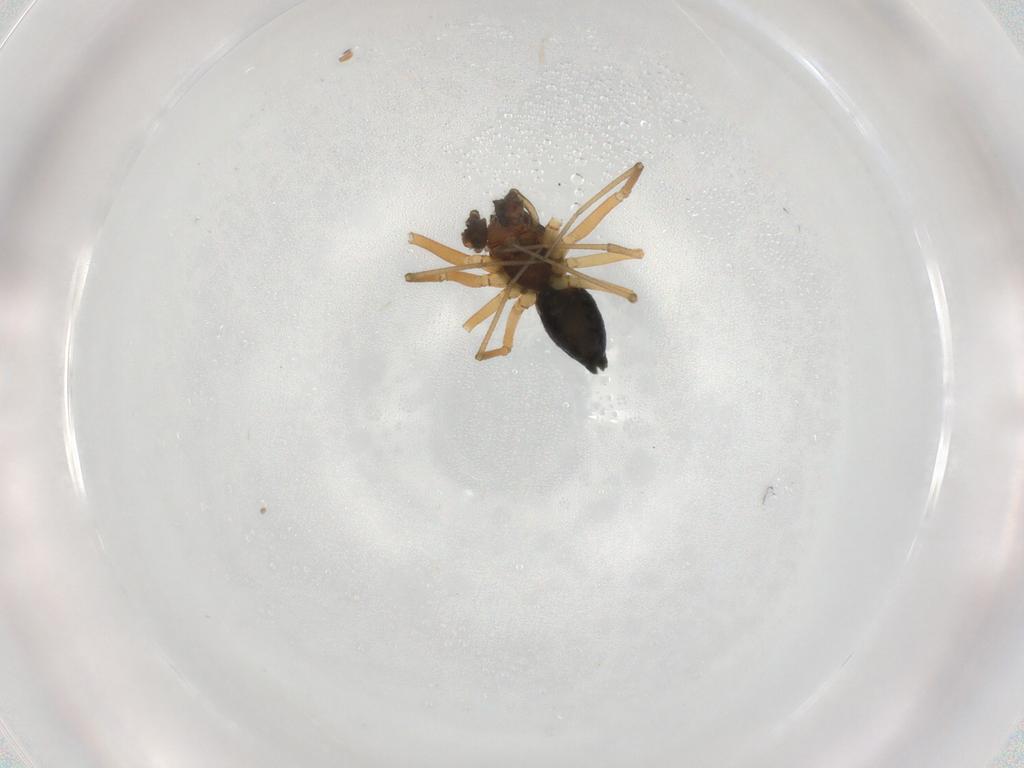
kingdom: Animalia
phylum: Arthropoda
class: Arachnida
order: Araneae
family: Linyphiidae
